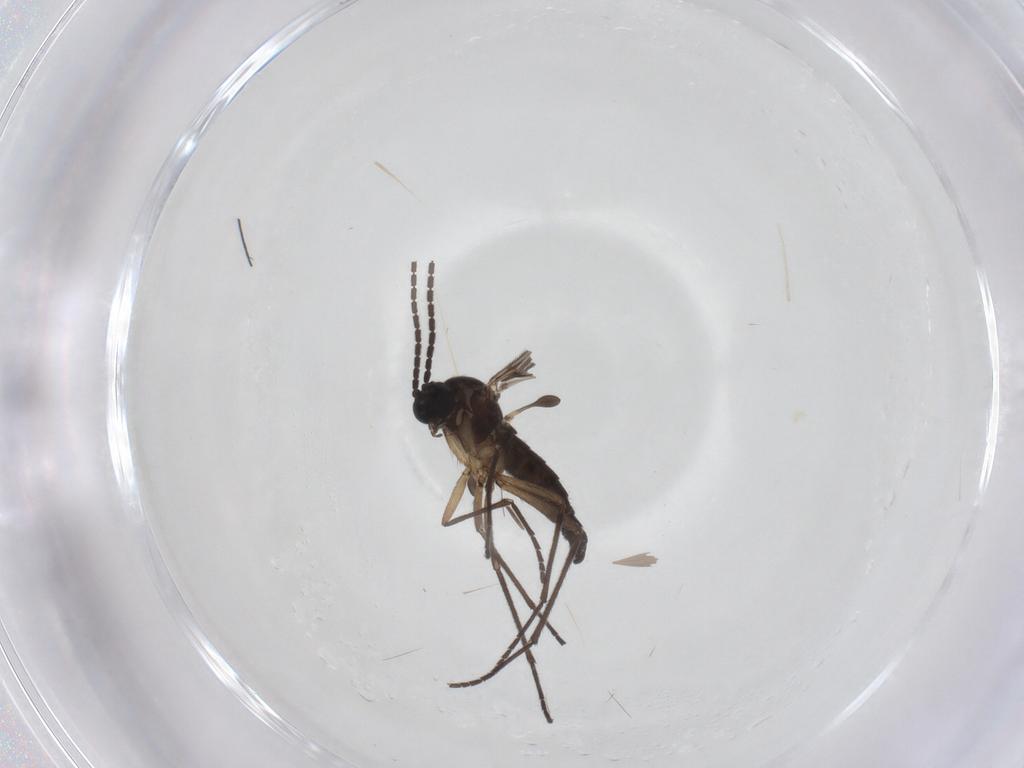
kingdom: Animalia
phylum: Arthropoda
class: Insecta
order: Diptera
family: Sciaridae
